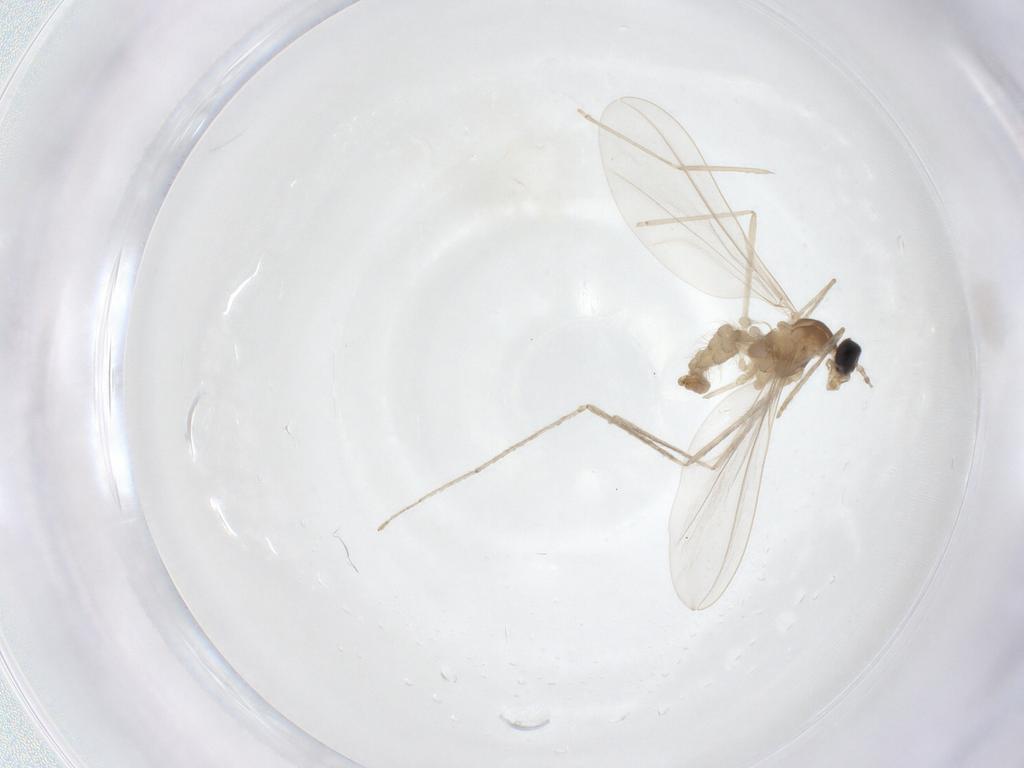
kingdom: Animalia
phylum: Arthropoda
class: Insecta
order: Diptera
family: Cecidomyiidae
